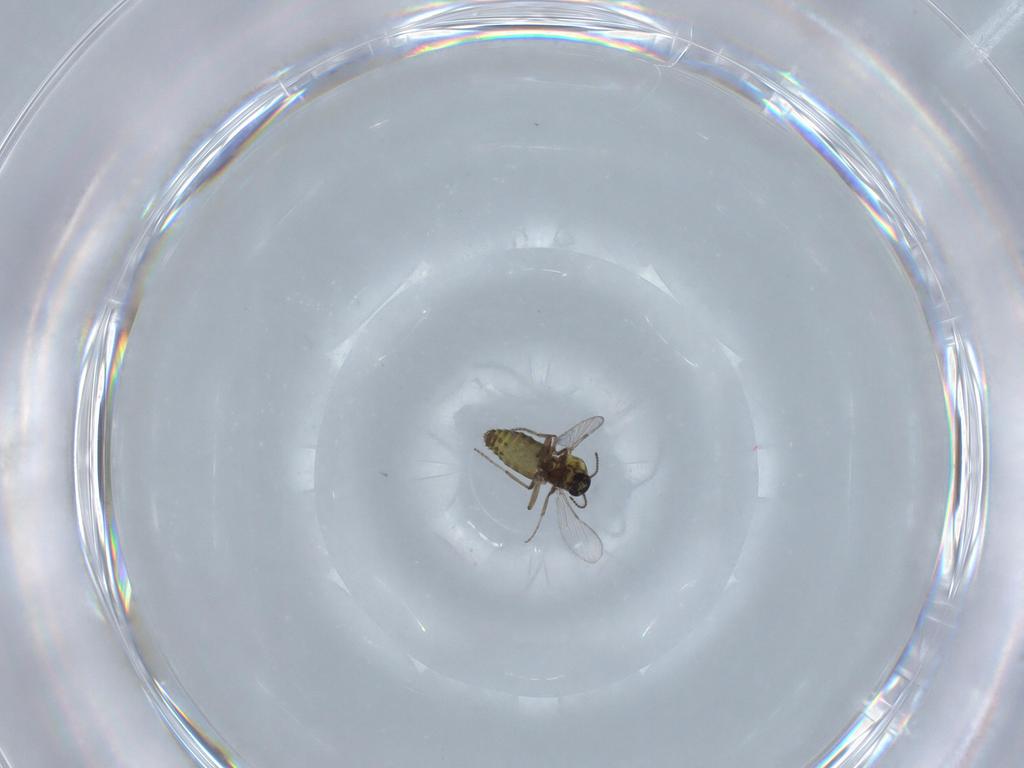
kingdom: Animalia
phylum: Arthropoda
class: Insecta
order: Diptera
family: Ceratopogonidae
